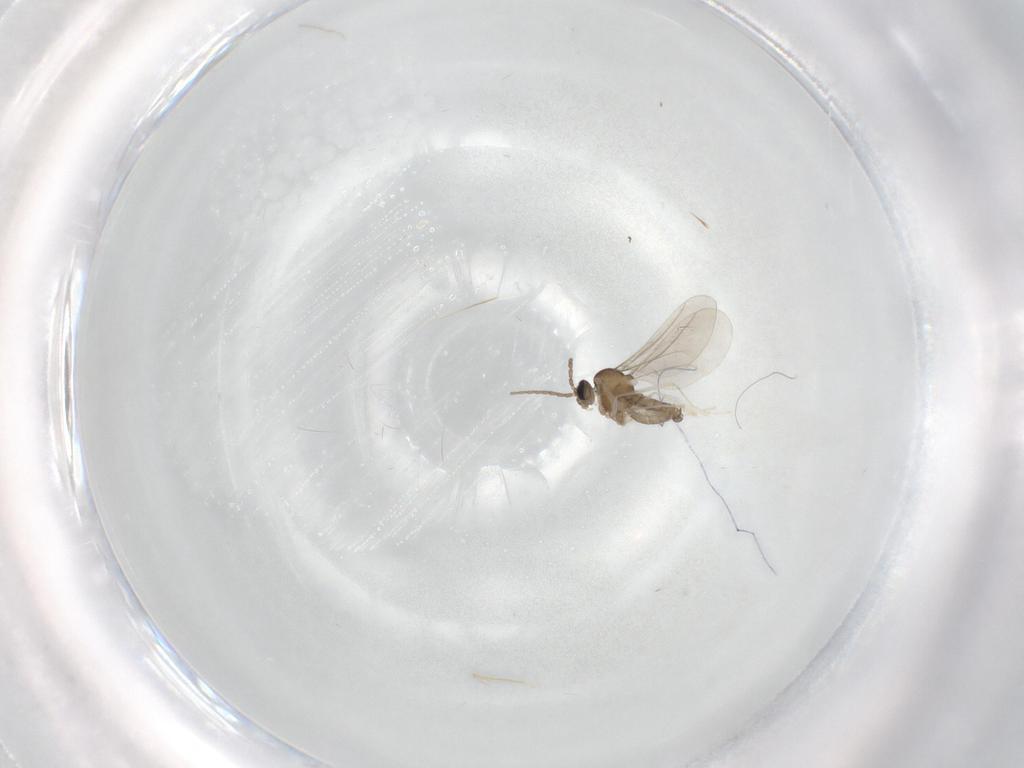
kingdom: Animalia
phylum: Arthropoda
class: Insecta
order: Diptera
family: Cecidomyiidae
